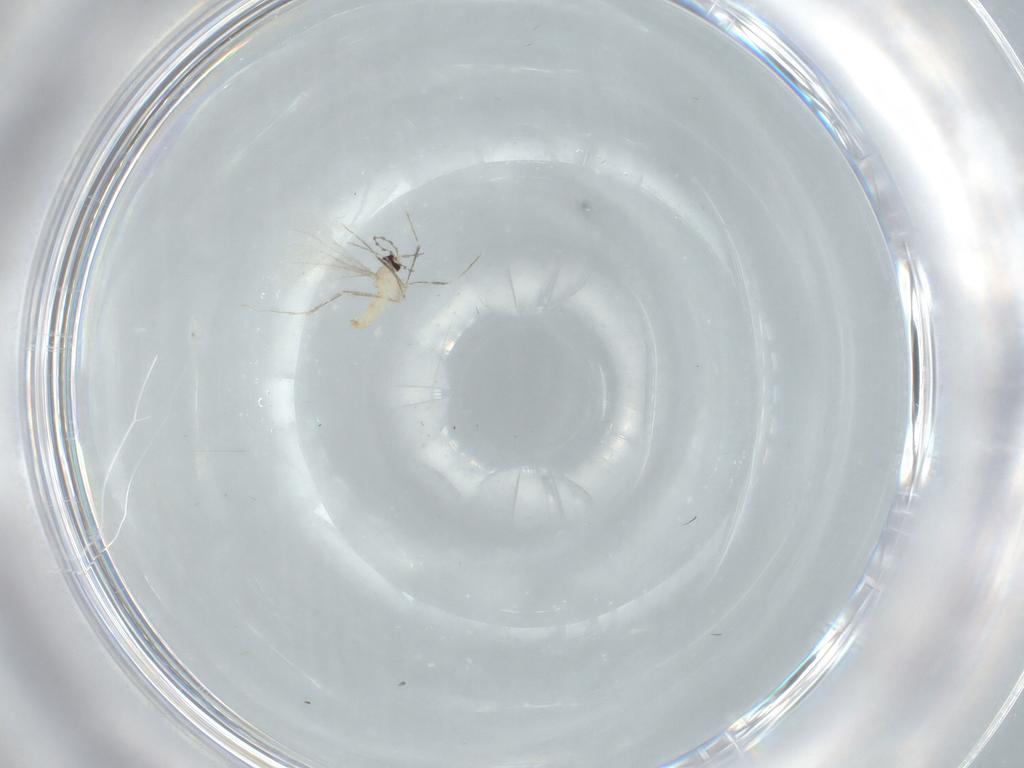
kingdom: Animalia
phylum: Arthropoda
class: Insecta
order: Diptera
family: Cecidomyiidae
